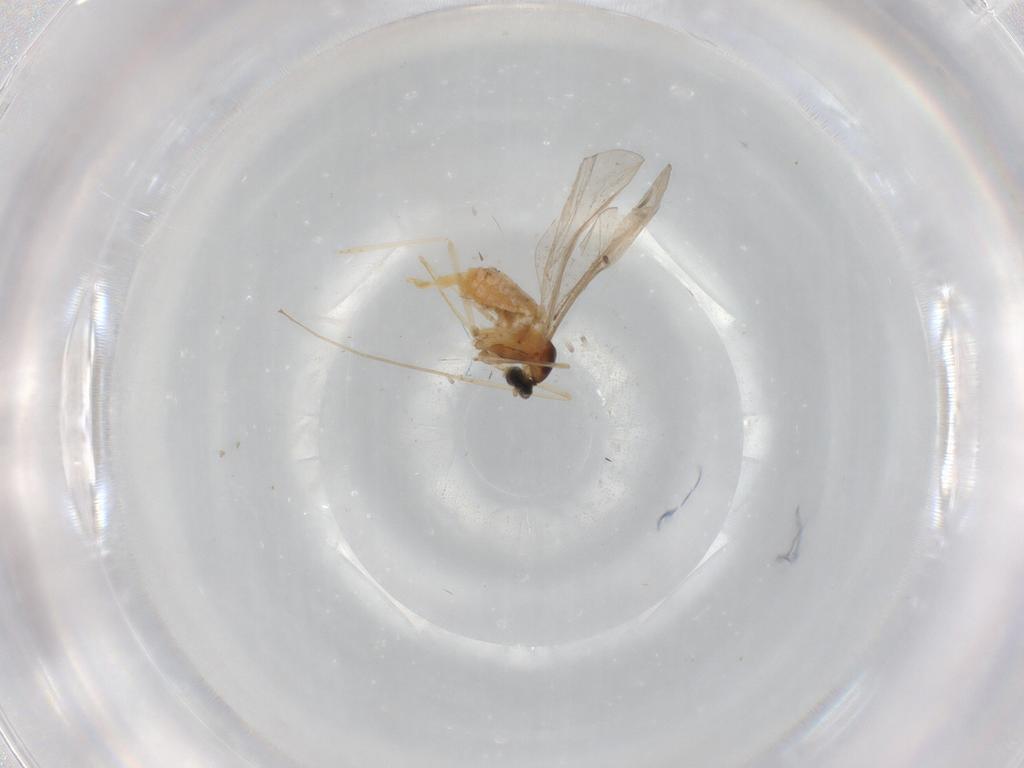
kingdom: Animalia
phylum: Arthropoda
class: Insecta
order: Diptera
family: Cecidomyiidae
